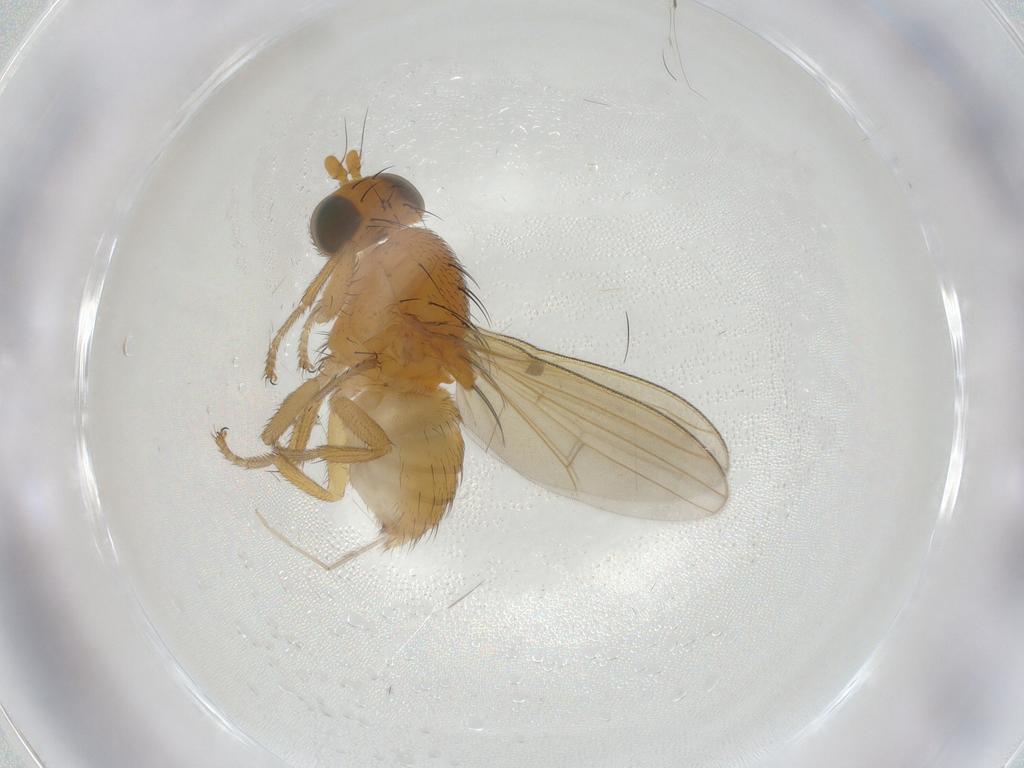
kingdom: Animalia
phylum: Arthropoda
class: Insecta
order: Diptera
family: Lauxaniidae
